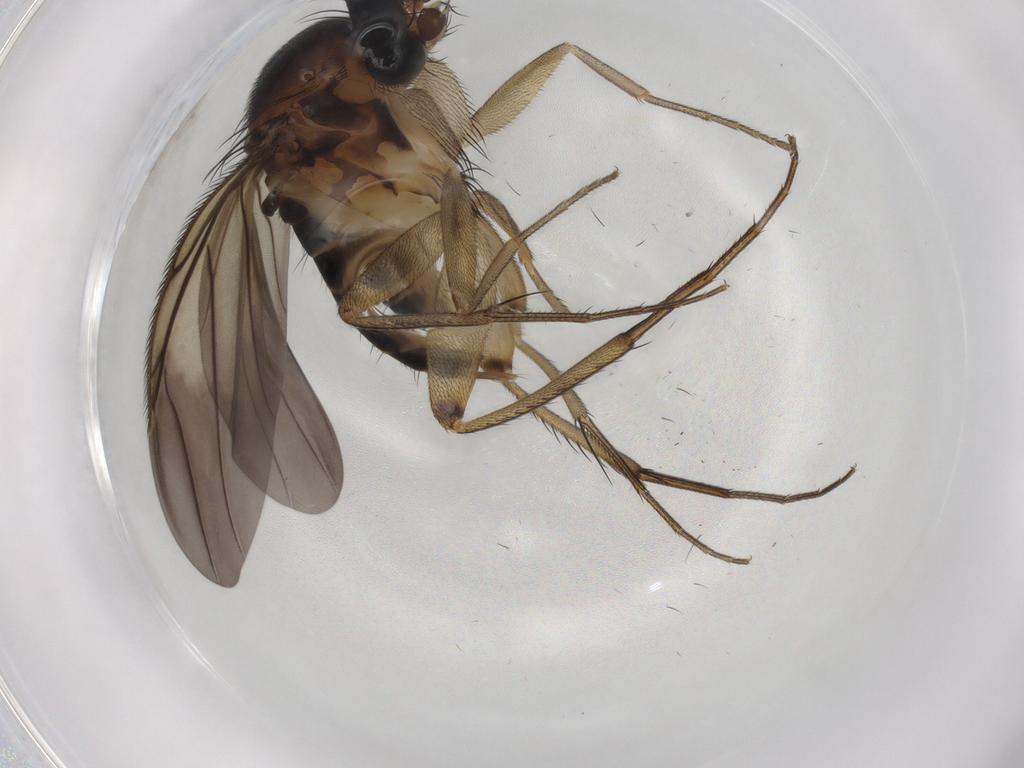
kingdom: Animalia
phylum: Arthropoda
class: Insecta
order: Diptera
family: Phoridae
